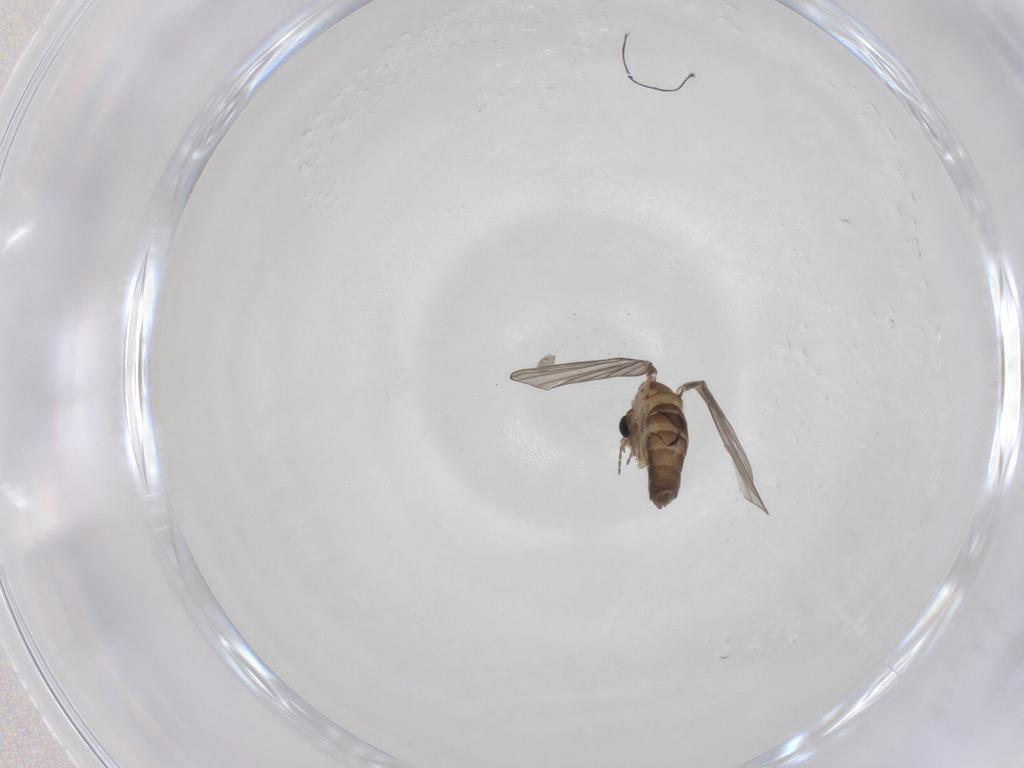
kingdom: Animalia
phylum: Arthropoda
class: Insecta
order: Diptera
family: Psychodidae
